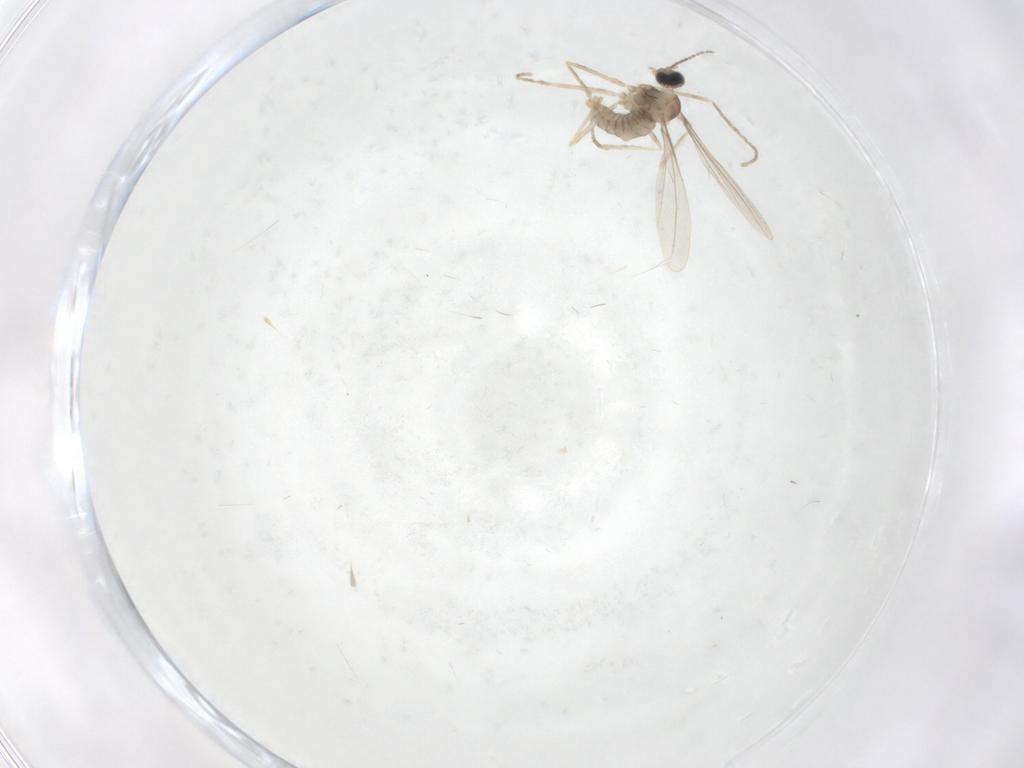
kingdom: Animalia
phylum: Arthropoda
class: Insecta
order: Diptera
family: Cecidomyiidae
